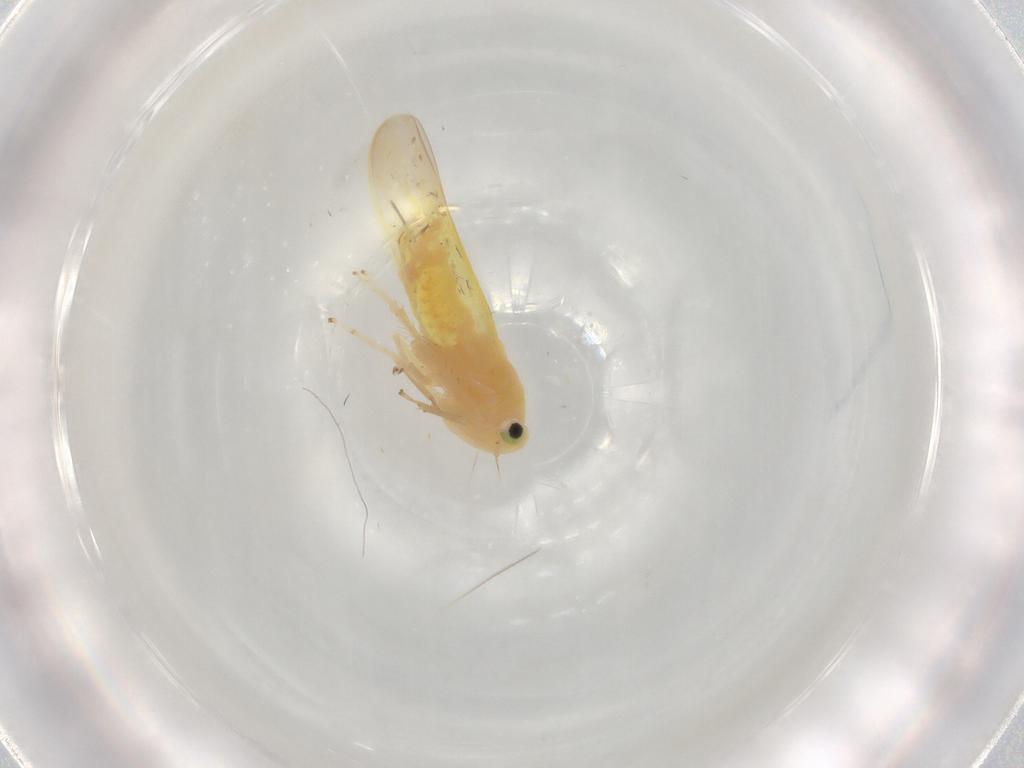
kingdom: Animalia
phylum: Arthropoda
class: Insecta
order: Hemiptera
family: Cicadellidae
